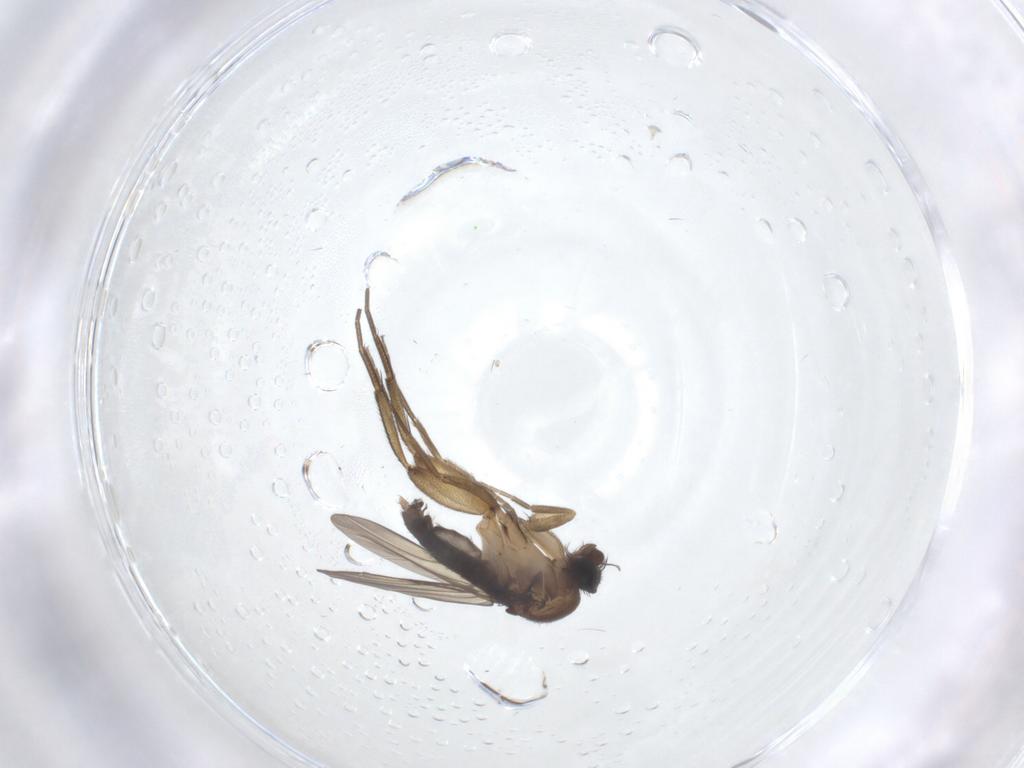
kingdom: Animalia
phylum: Arthropoda
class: Insecta
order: Diptera
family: Phoridae
